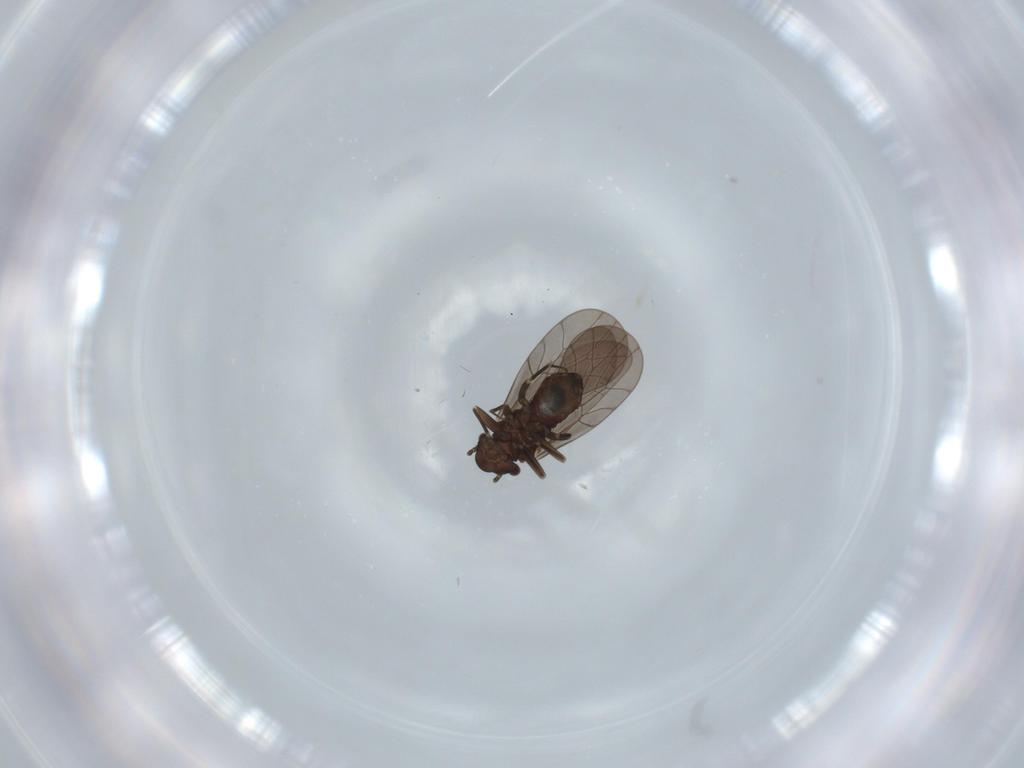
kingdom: Animalia
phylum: Arthropoda
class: Insecta
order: Psocodea
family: Lepidopsocidae
